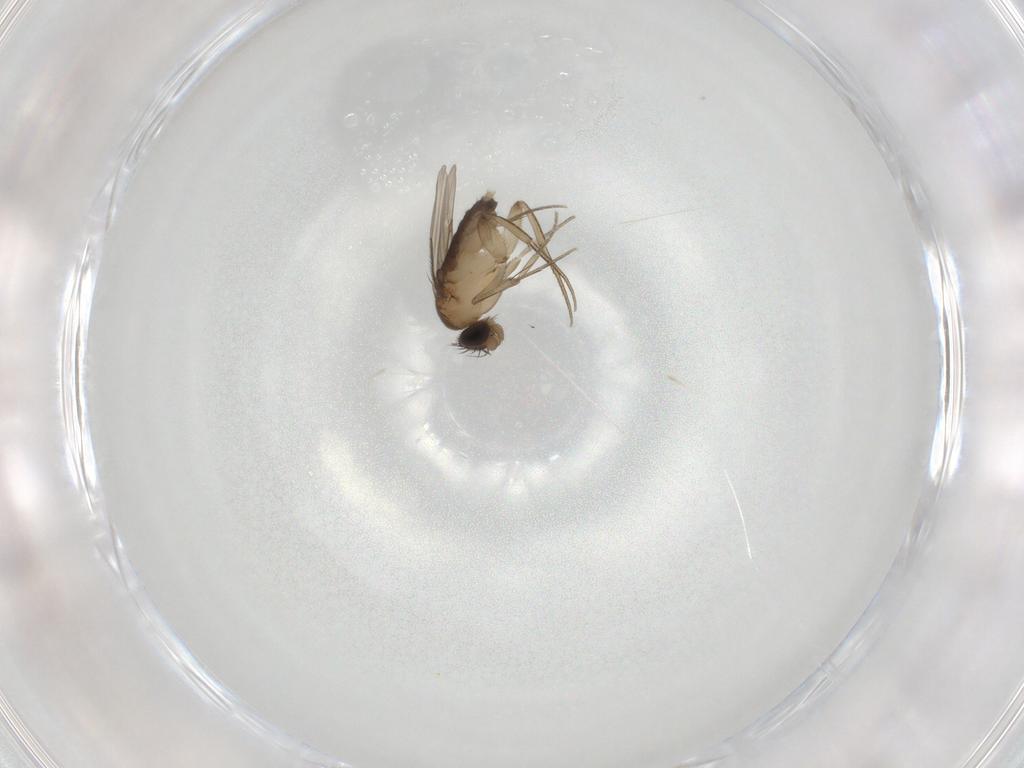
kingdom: Animalia
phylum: Arthropoda
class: Insecta
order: Diptera
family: Phoridae
